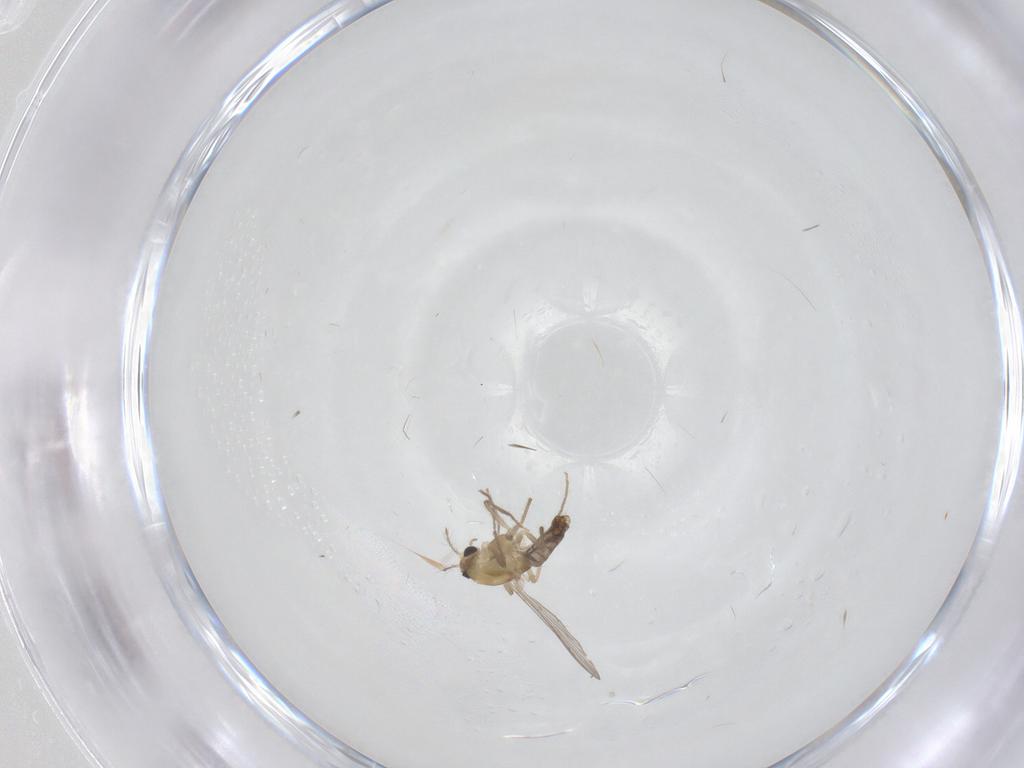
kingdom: Animalia
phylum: Arthropoda
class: Insecta
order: Diptera
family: Chironomidae
